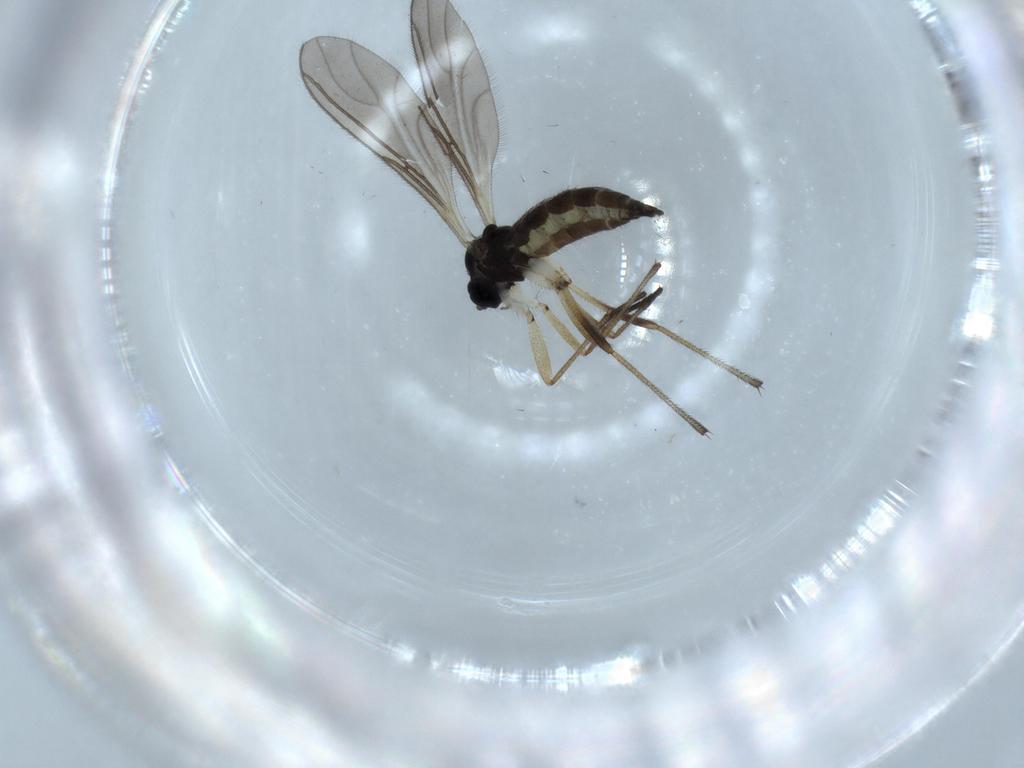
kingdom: Animalia
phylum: Arthropoda
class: Insecta
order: Diptera
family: Sciaridae
